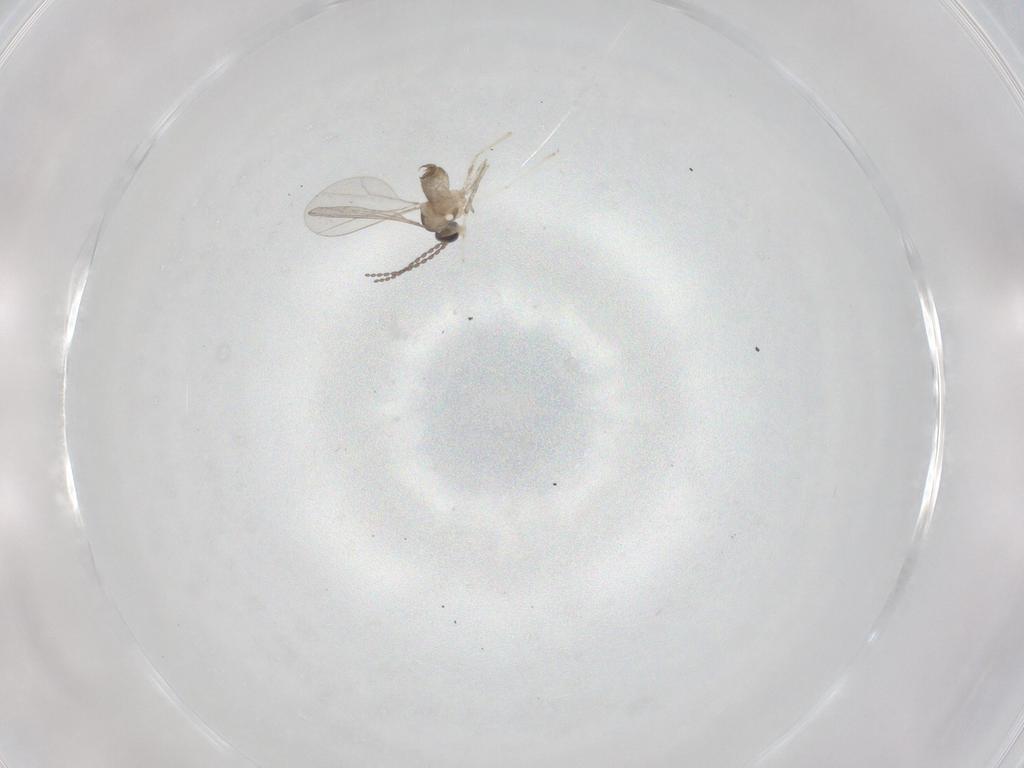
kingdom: Animalia
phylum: Arthropoda
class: Insecta
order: Diptera
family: Cecidomyiidae
